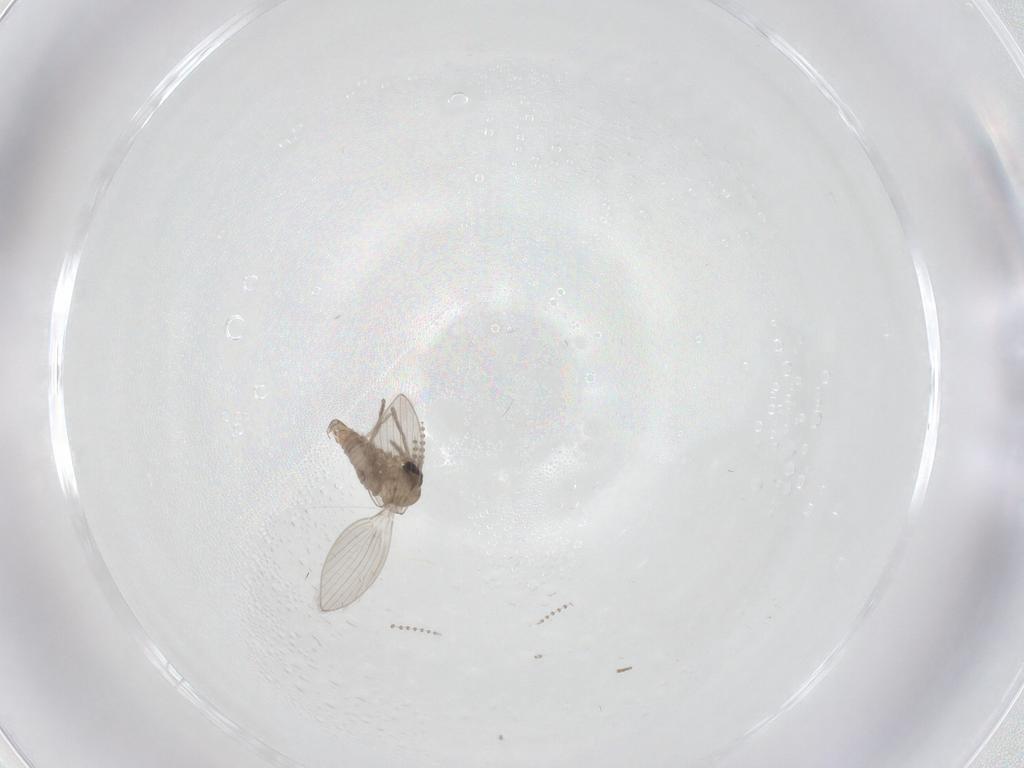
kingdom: Animalia
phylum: Arthropoda
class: Insecta
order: Diptera
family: Psychodidae
